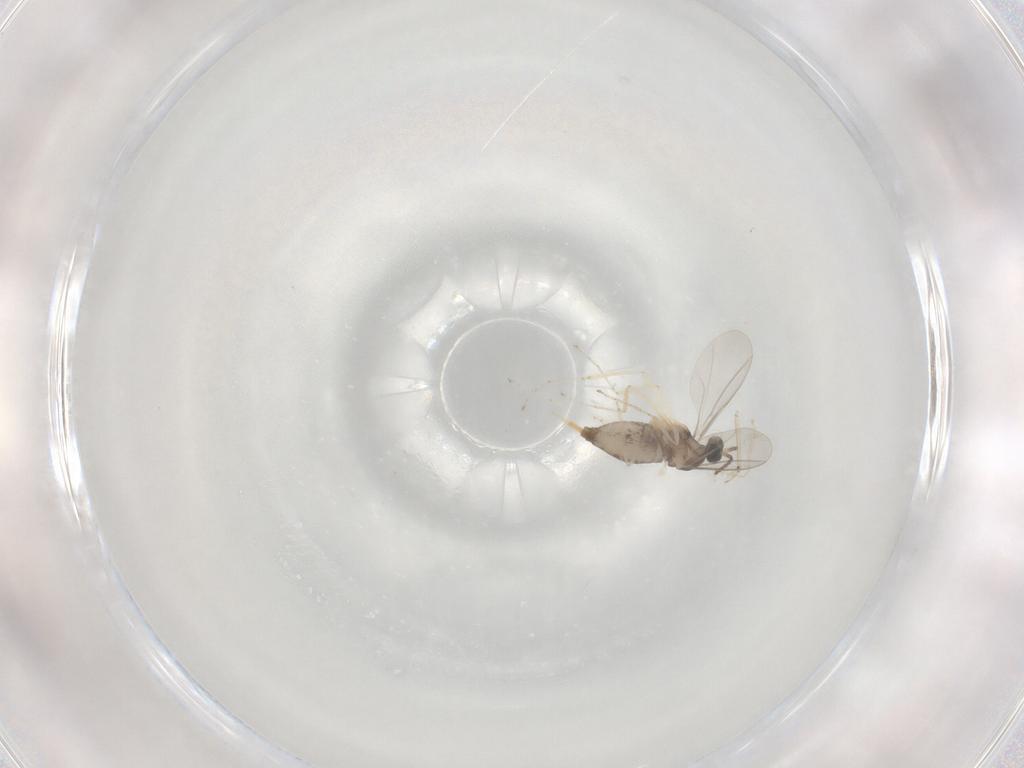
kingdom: Animalia
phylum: Arthropoda
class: Insecta
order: Diptera
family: Cecidomyiidae
